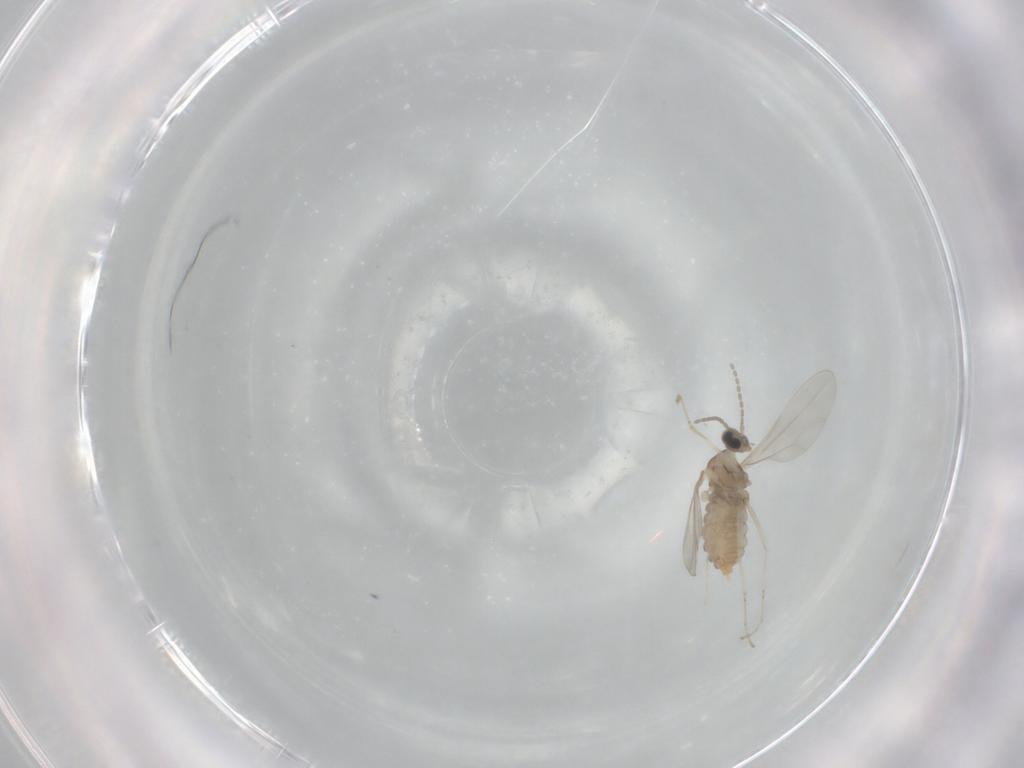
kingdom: Animalia
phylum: Arthropoda
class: Insecta
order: Diptera
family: Cecidomyiidae
